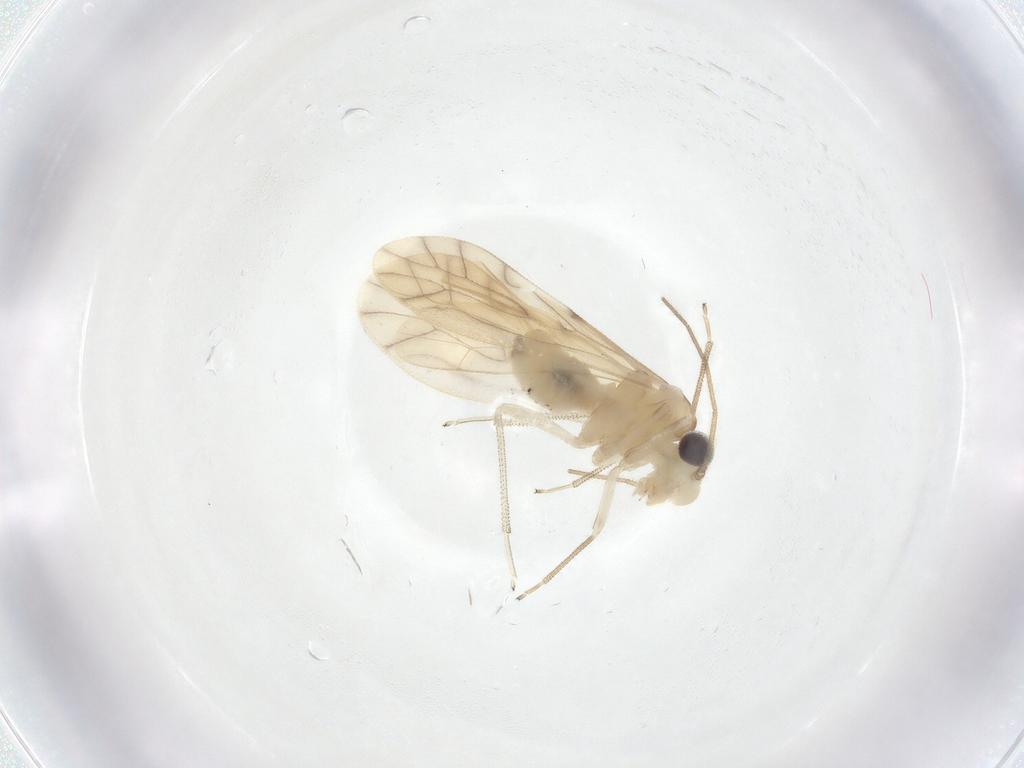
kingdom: Animalia
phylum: Arthropoda
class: Insecta
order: Psocodea
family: Caeciliusidae
